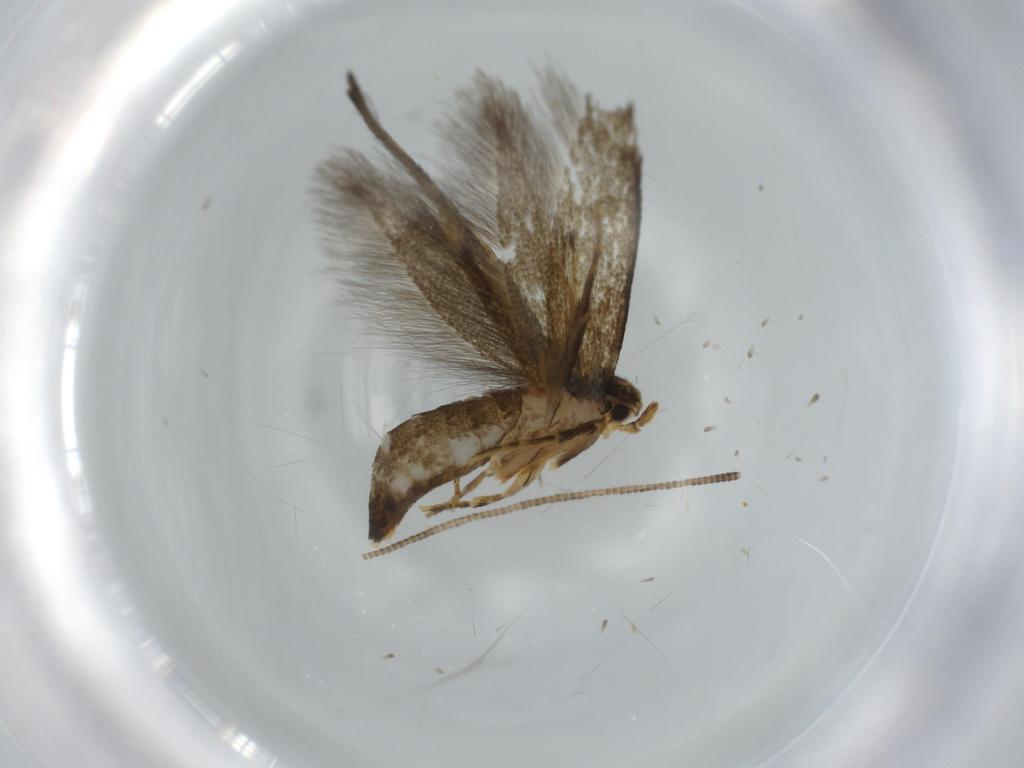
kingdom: Animalia
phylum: Arthropoda
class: Insecta
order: Lepidoptera
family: Tineidae
